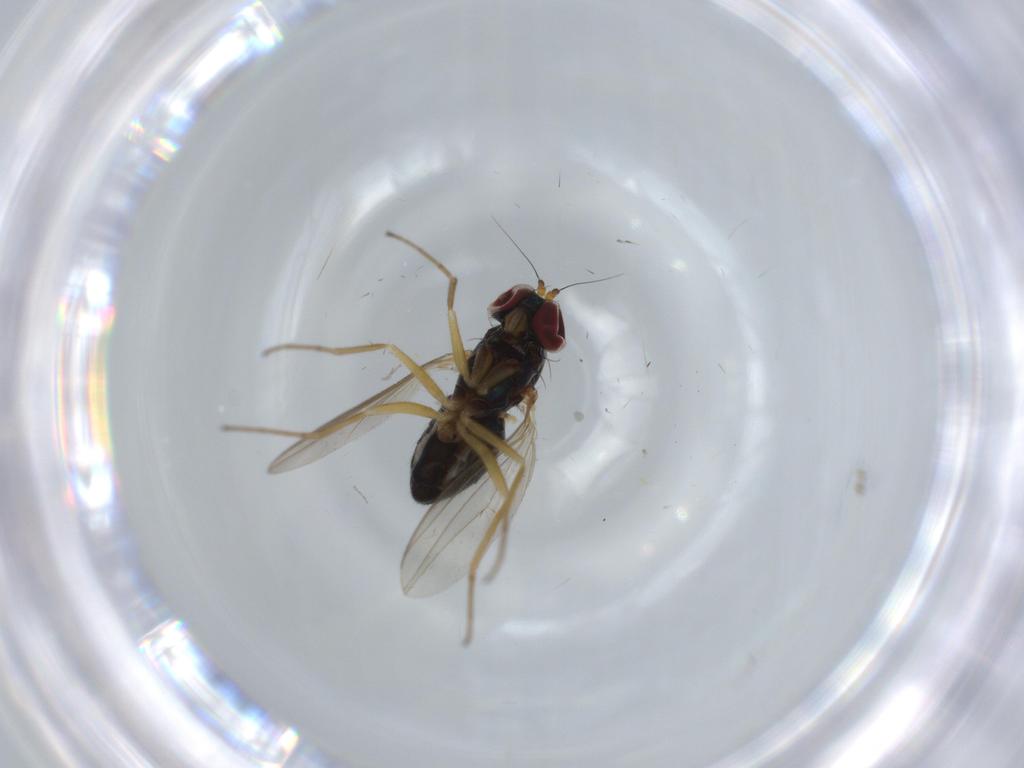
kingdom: Animalia
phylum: Arthropoda
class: Insecta
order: Diptera
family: Dolichopodidae
